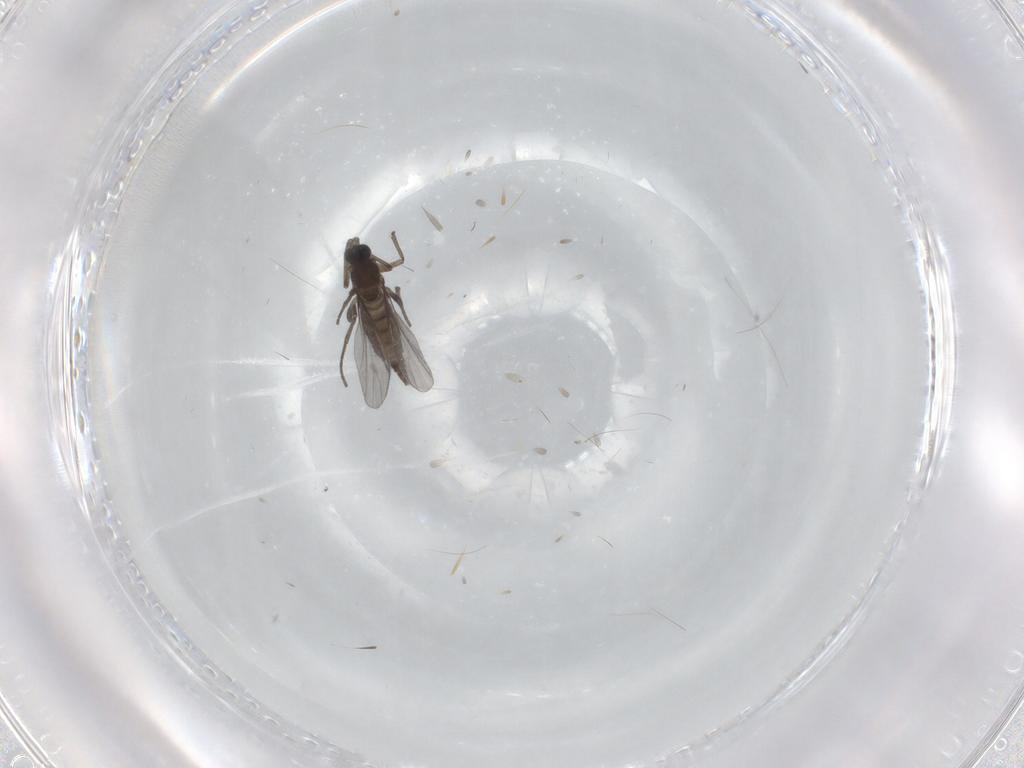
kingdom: Animalia
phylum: Arthropoda
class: Insecta
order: Diptera
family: Sciaridae
